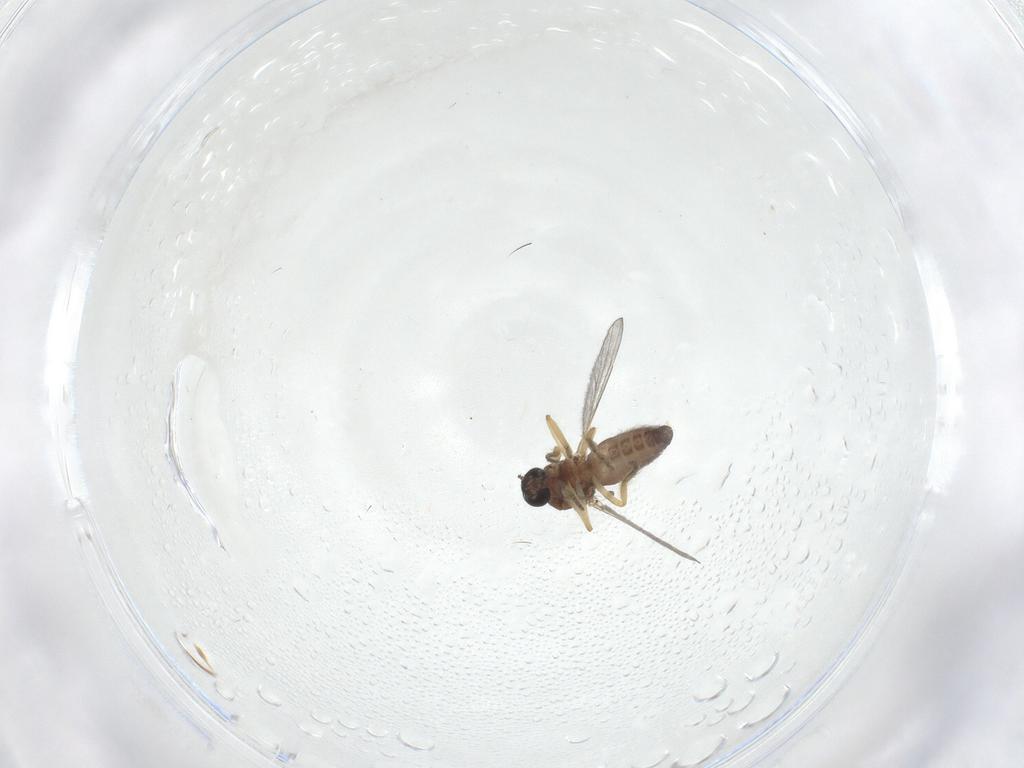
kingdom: Animalia
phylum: Arthropoda
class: Insecta
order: Diptera
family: Ceratopogonidae
